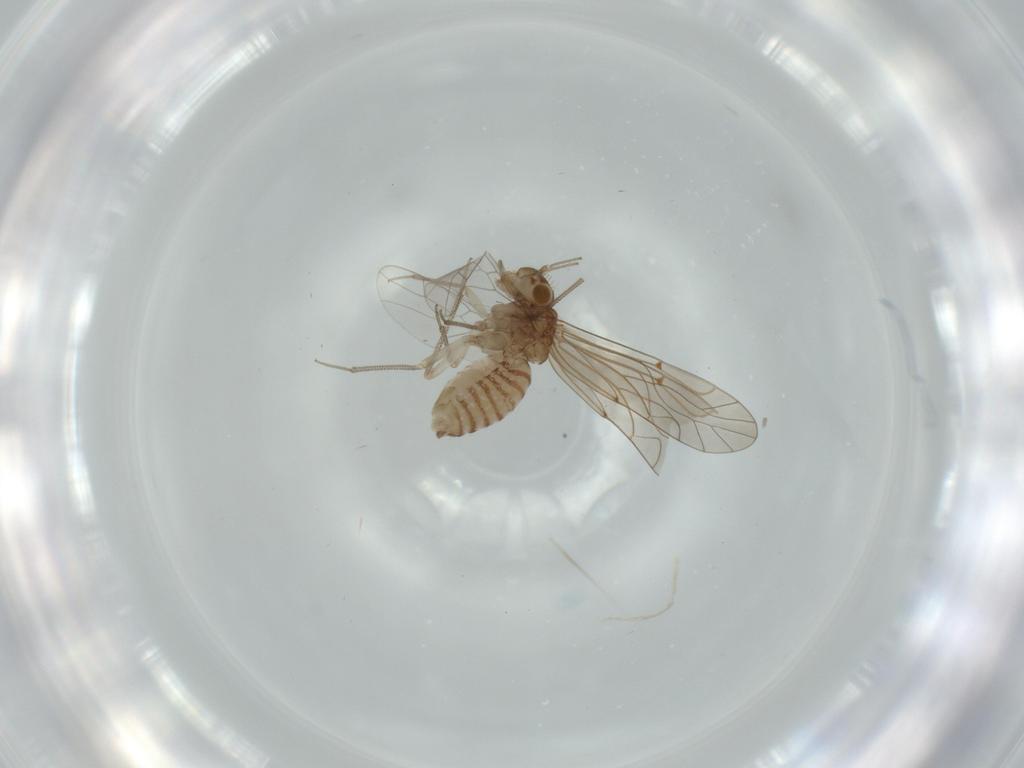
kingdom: Animalia
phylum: Arthropoda
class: Insecta
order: Psocodea
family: Lachesillidae
